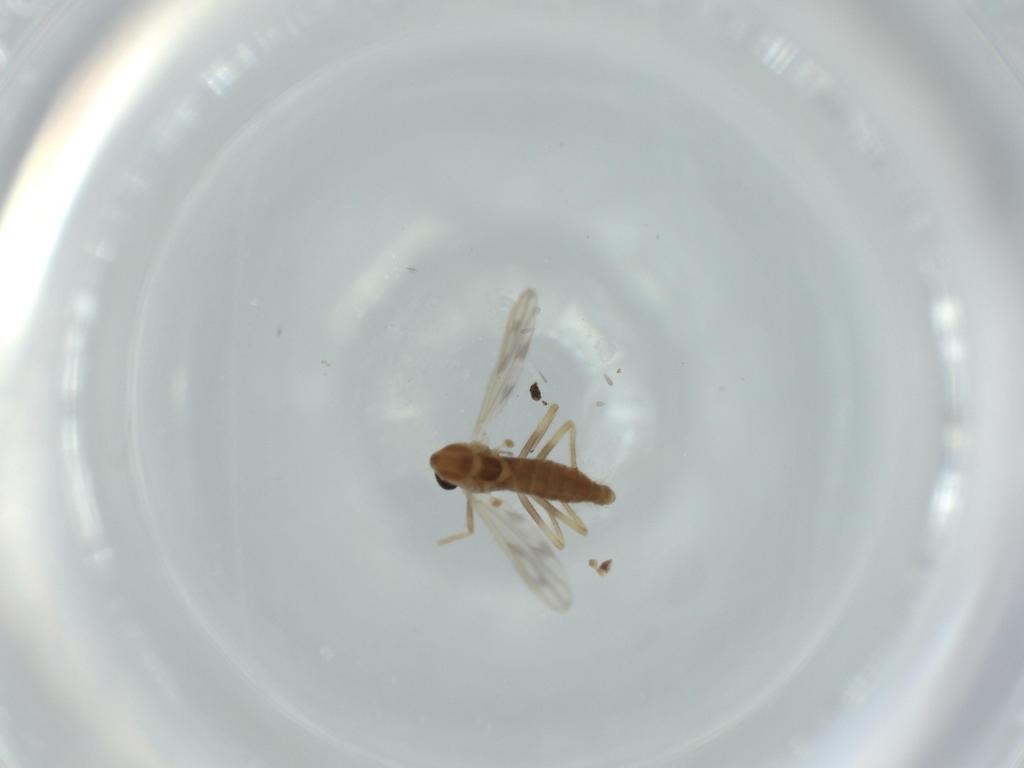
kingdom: Animalia
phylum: Arthropoda
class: Insecta
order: Diptera
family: Chironomidae
